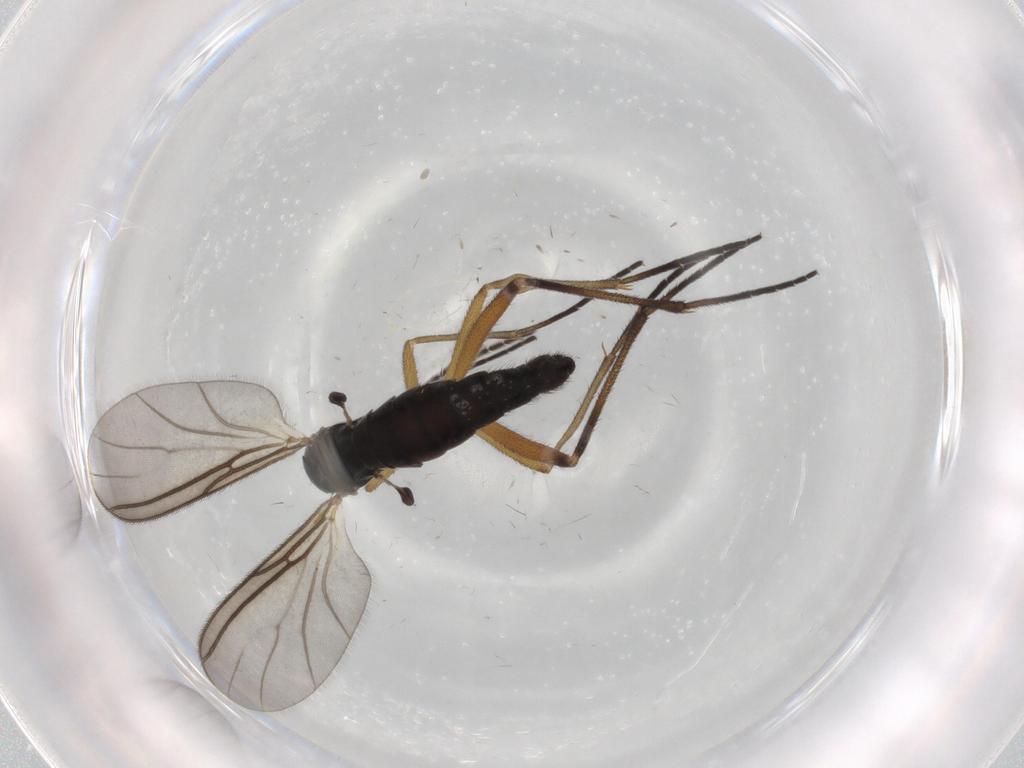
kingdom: Animalia
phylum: Arthropoda
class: Insecta
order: Diptera
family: Sciaridae
